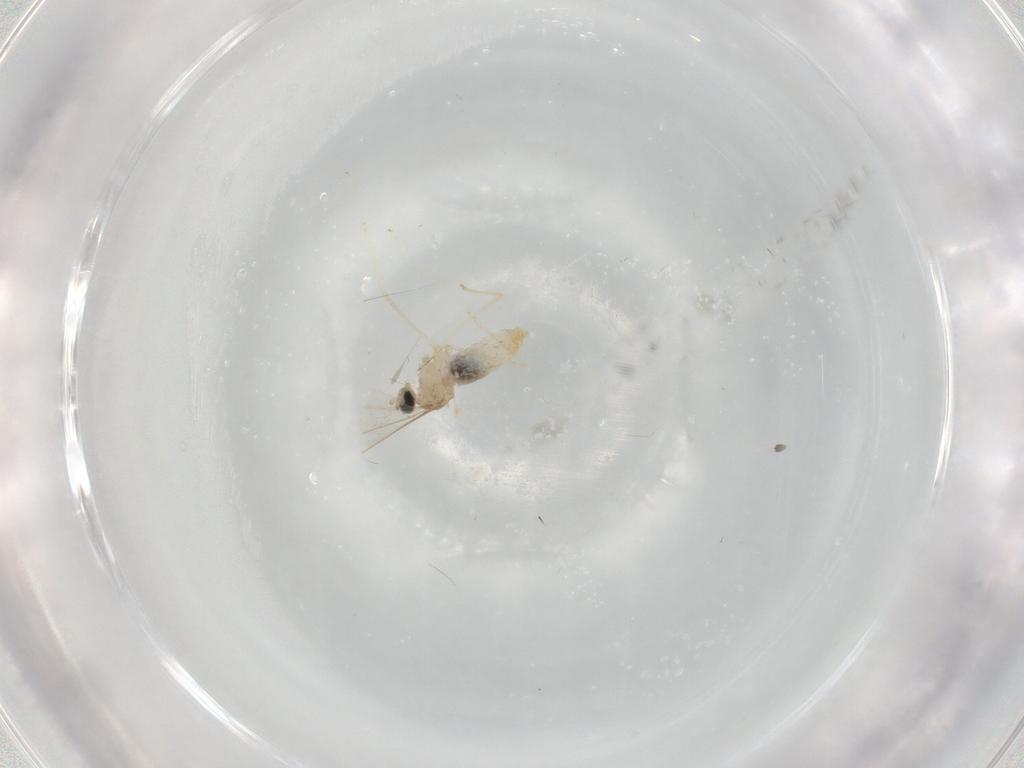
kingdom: Animalia
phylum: Arthropoda
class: Insecta
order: Diptera
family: Cecidomyiidae
